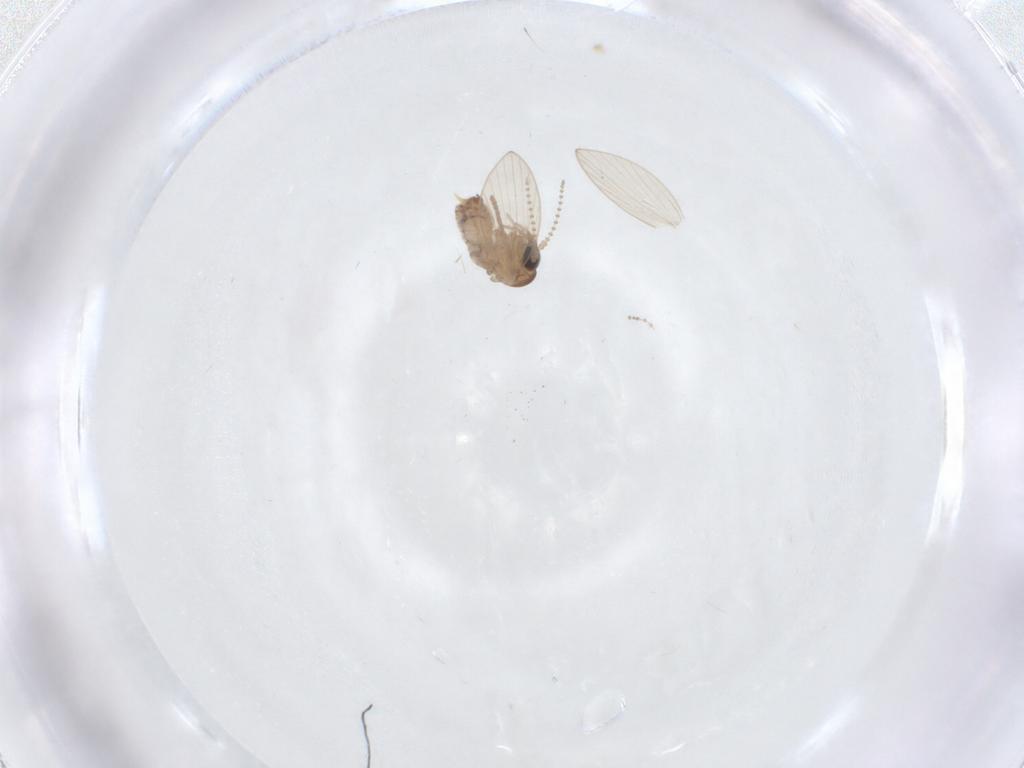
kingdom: Animalia
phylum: Arthropoda
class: Insecta
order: Diptera
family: Psychodidae
